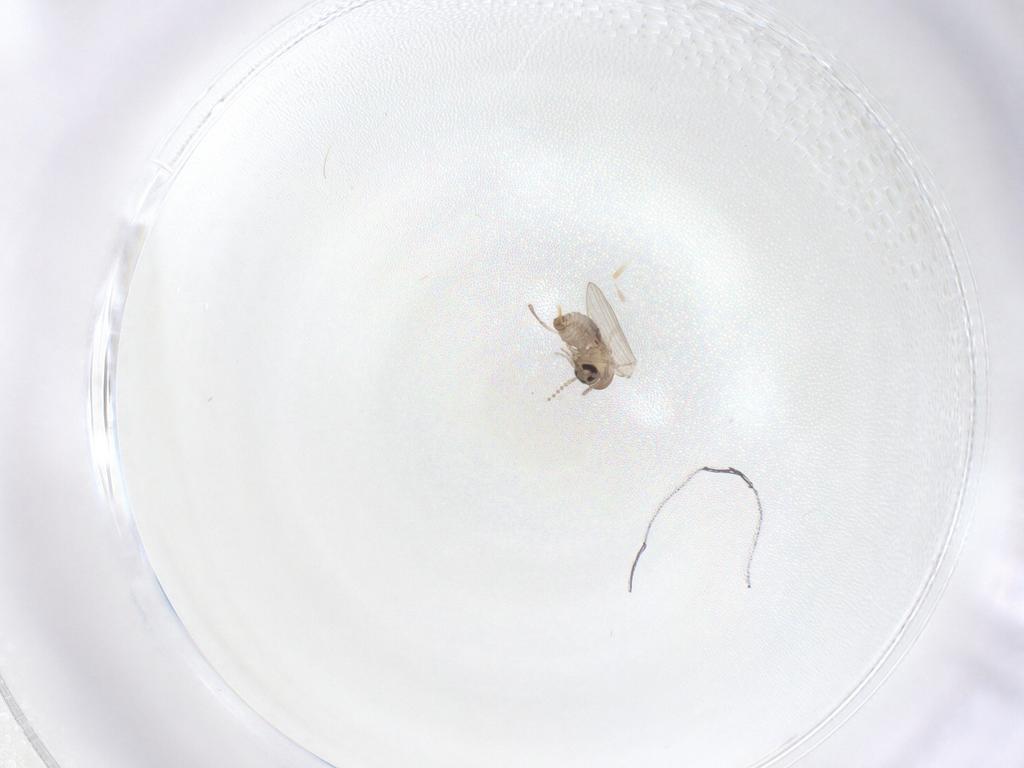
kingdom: Animalia
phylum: Arthropoda
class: Insecta
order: Diptera
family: Psychodidae
